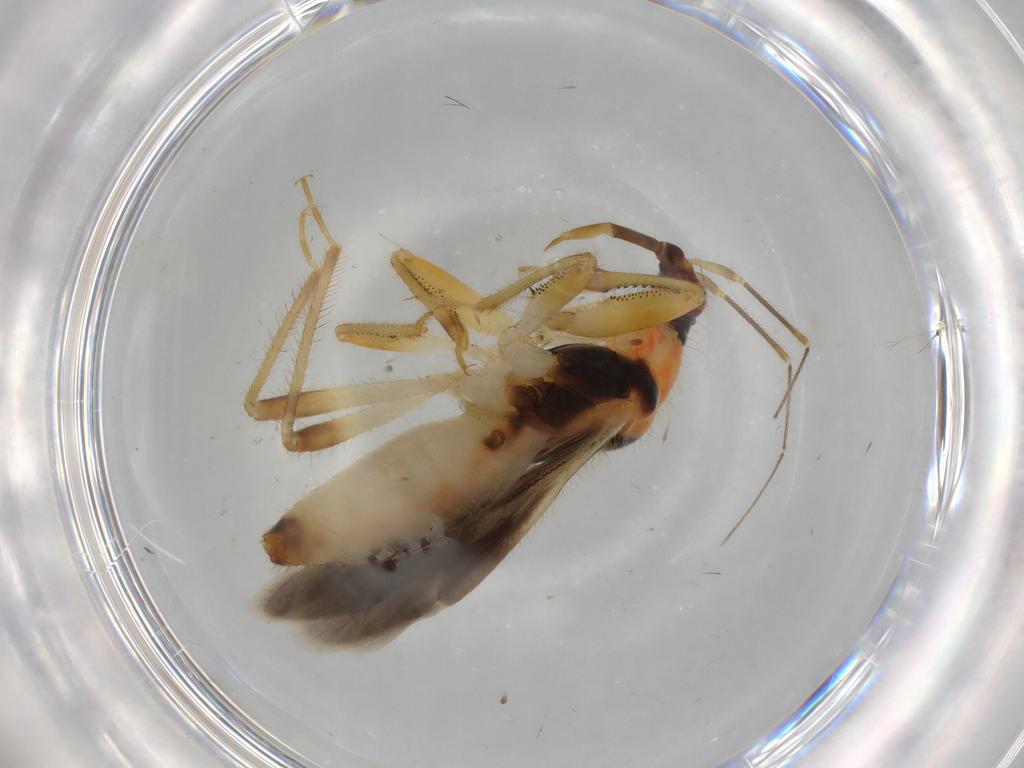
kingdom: Animalia
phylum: Arthropoda
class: Insecta
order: Hemiptera
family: Nabidae
